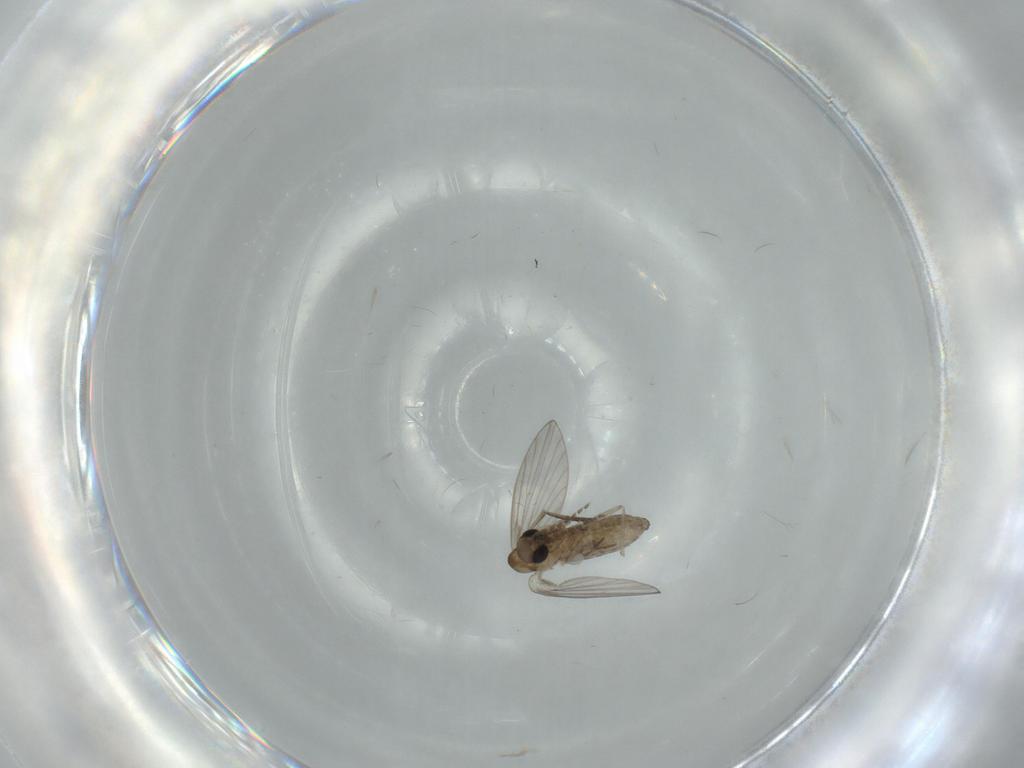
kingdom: Animalia
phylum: Arthropoda
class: Insecta
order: Diptera
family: Psychodidae
